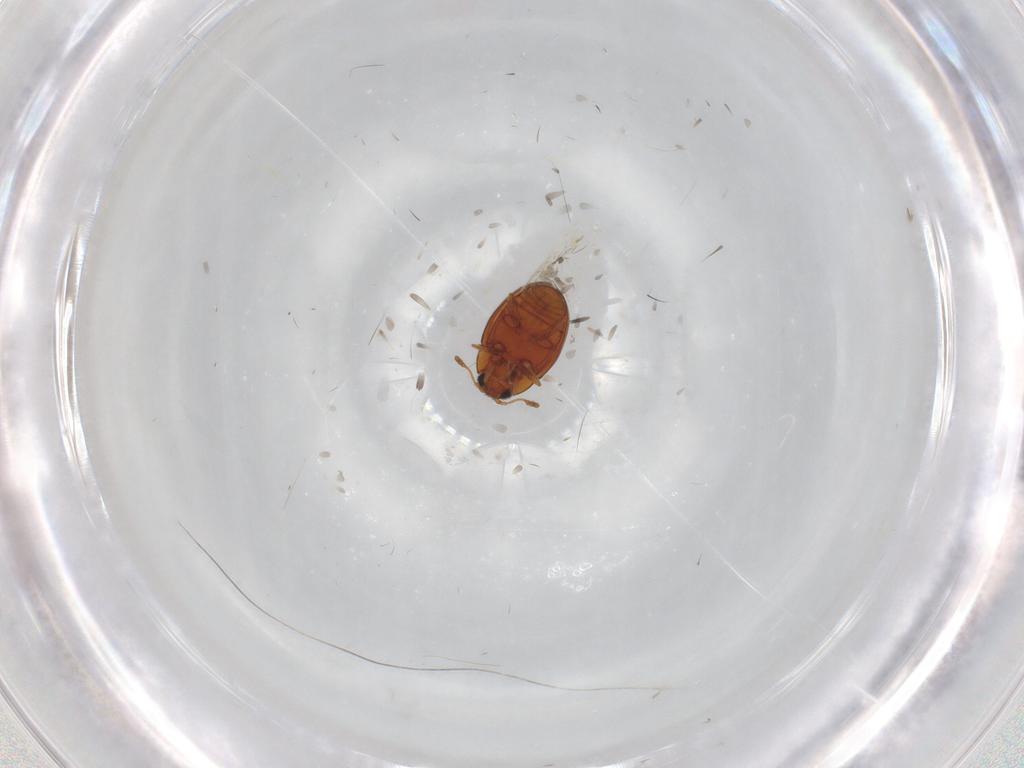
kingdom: Animalia
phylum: Arthropoda
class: Insecta
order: Coleoptera
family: Cryptophagidae
